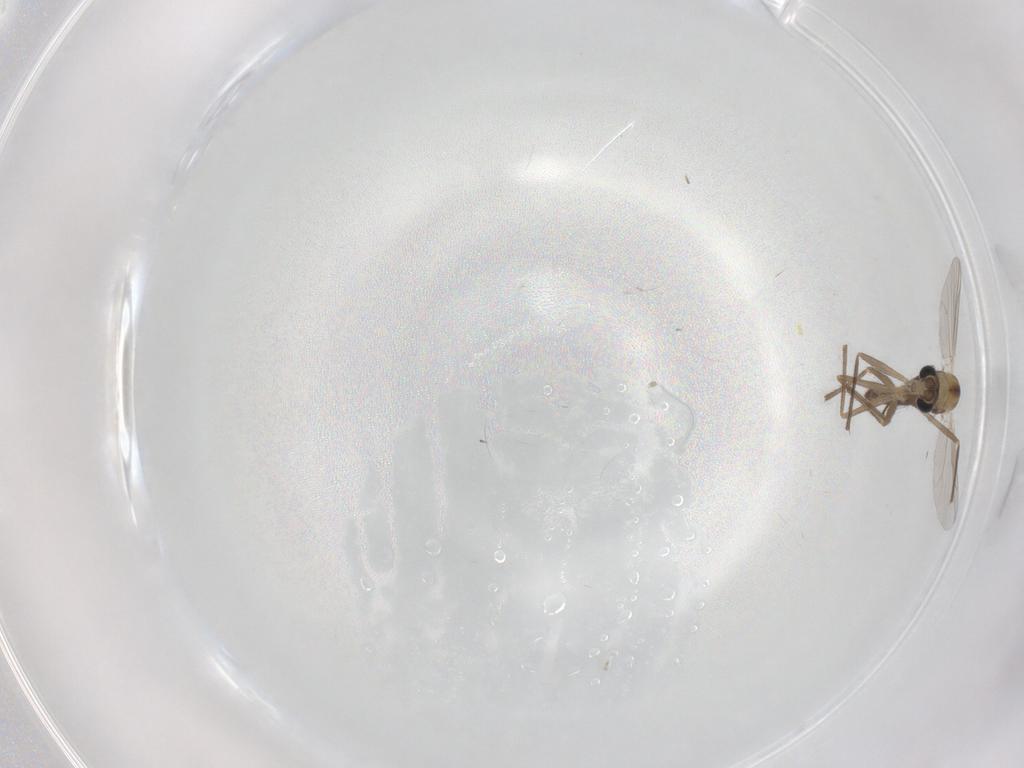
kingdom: Animalia
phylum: Arthropoda
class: Insecta
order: Diptera
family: Chironomidae
